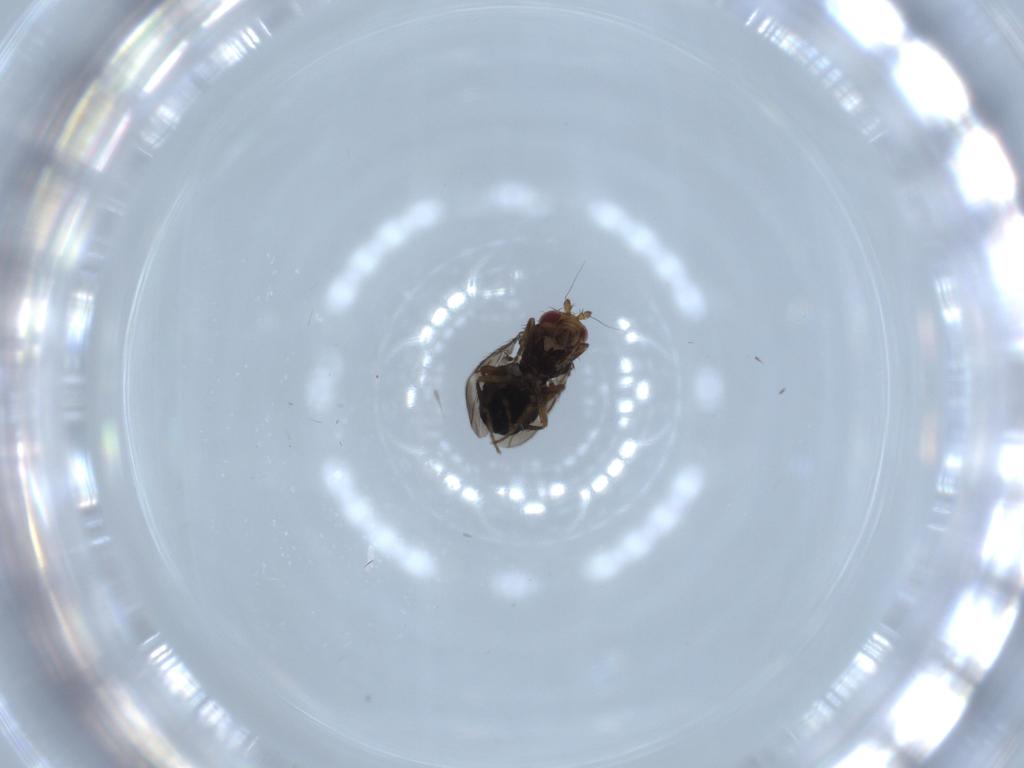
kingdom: Animalia
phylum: Arthropoda
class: Insecta
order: Diptera
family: Sphaeroceridae
